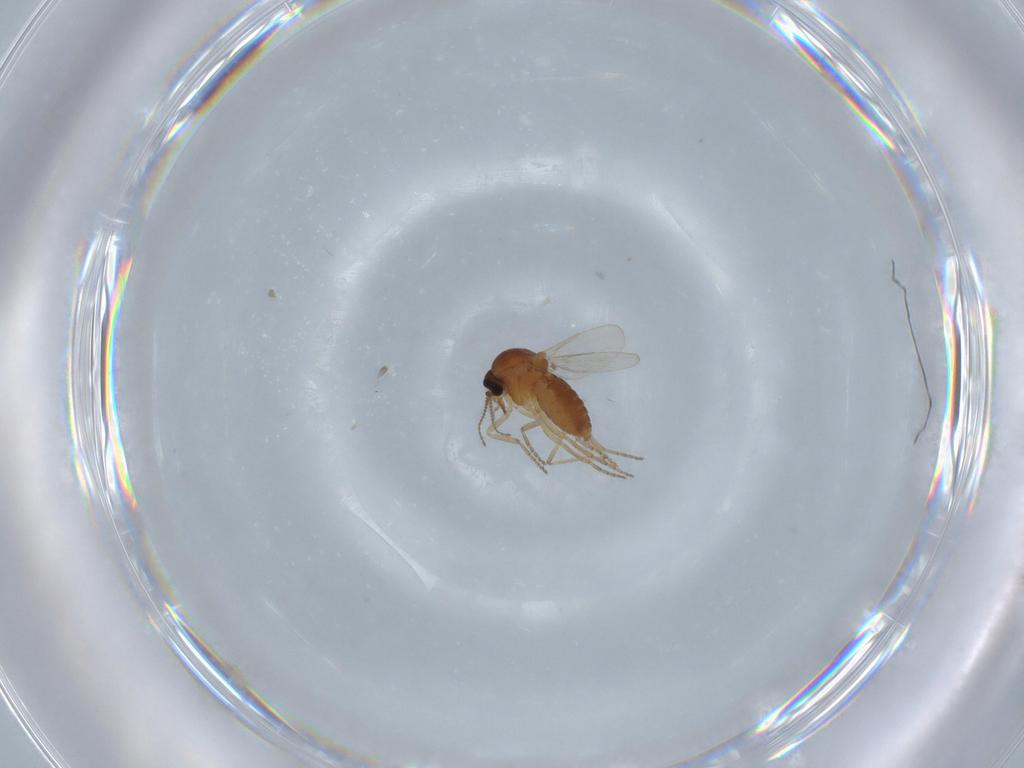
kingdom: Animalia
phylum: Arthropoda
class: Insecta
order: Diptera
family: Ceratopogonidae
